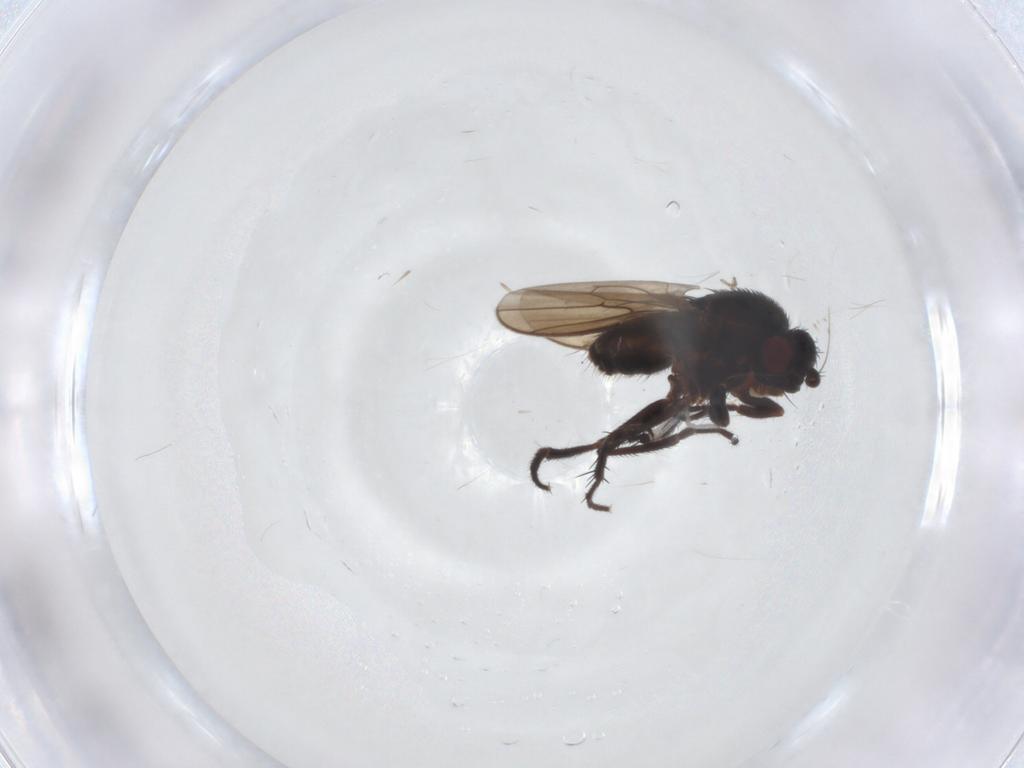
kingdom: Animalia
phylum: Arthropoda
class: Insecta
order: Diptera
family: Sphaeroceridae
